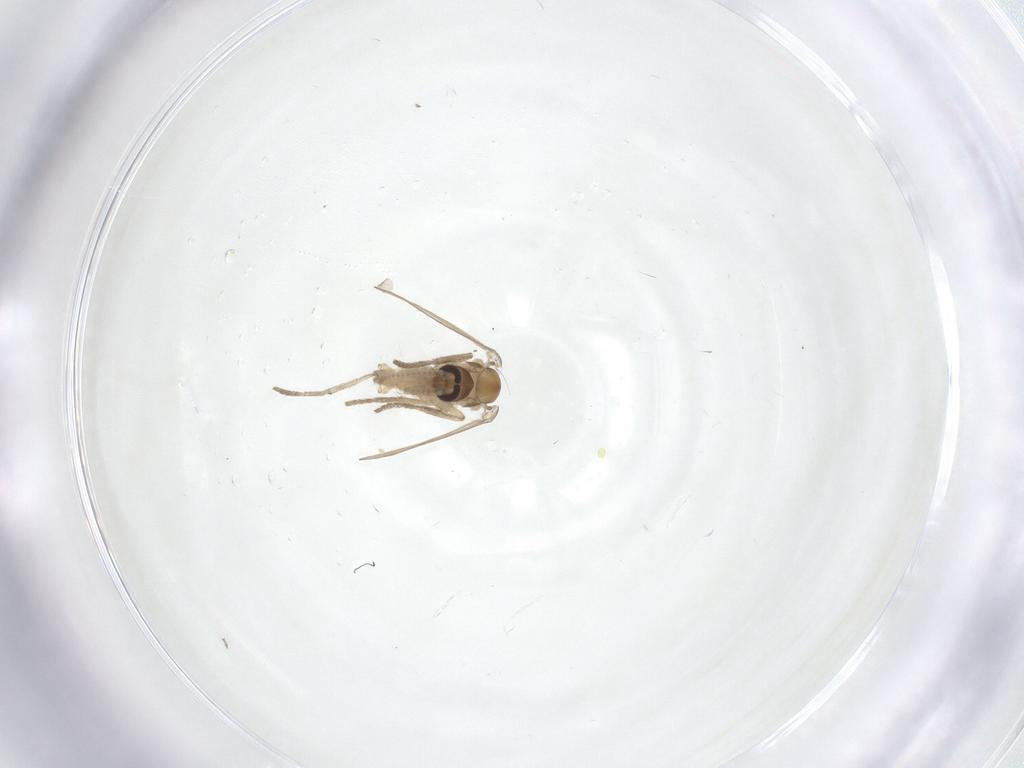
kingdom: Animalia
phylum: Arthropoda
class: Insecta
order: Diptera
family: Psychodidae
